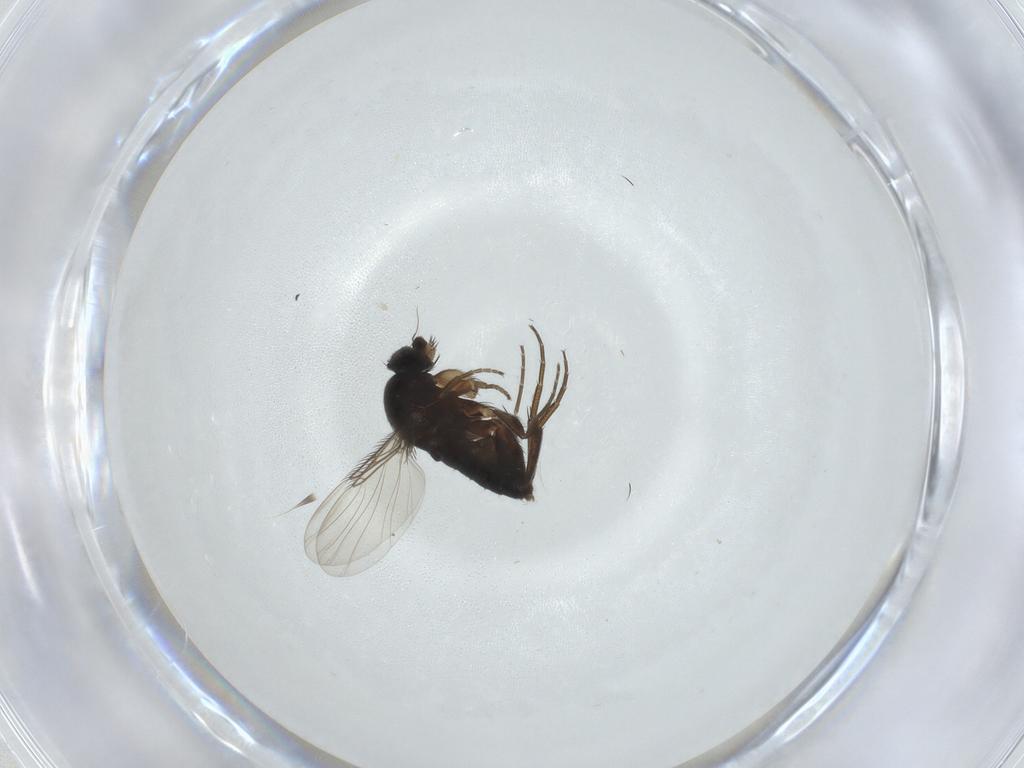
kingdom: Animalia
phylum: Arthropoda
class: Insecta
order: Diptera
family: Phoridae
